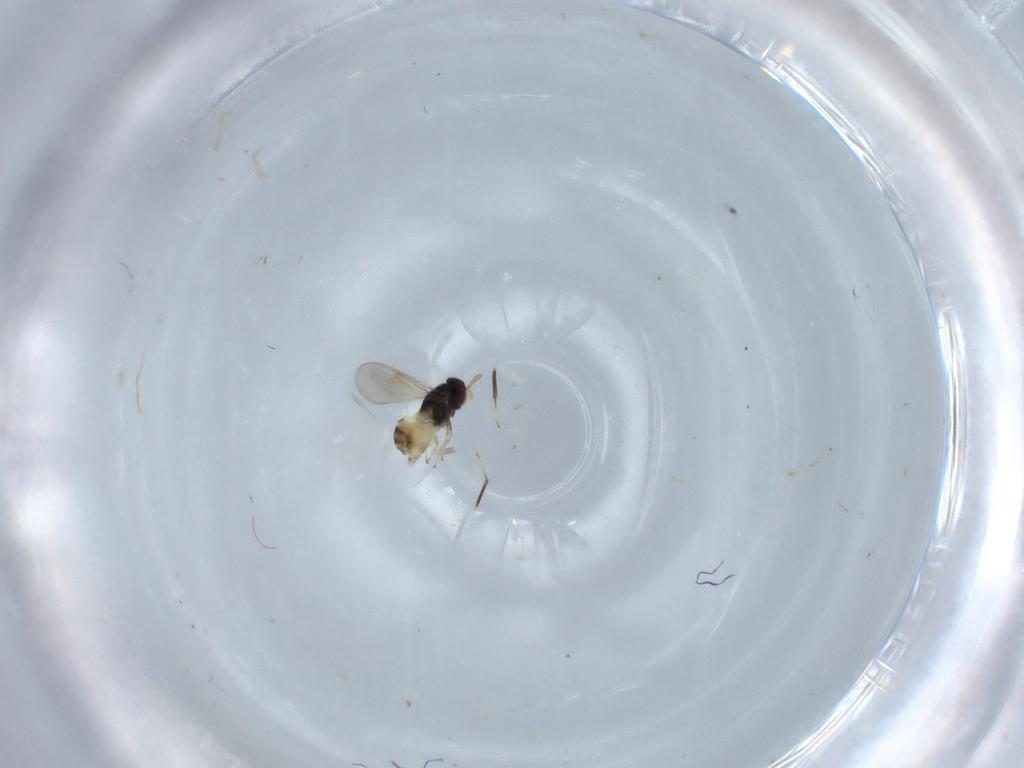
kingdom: Animalia
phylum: Arthropoda
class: Insecta
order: Hymenoptera
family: Aphelinidae
